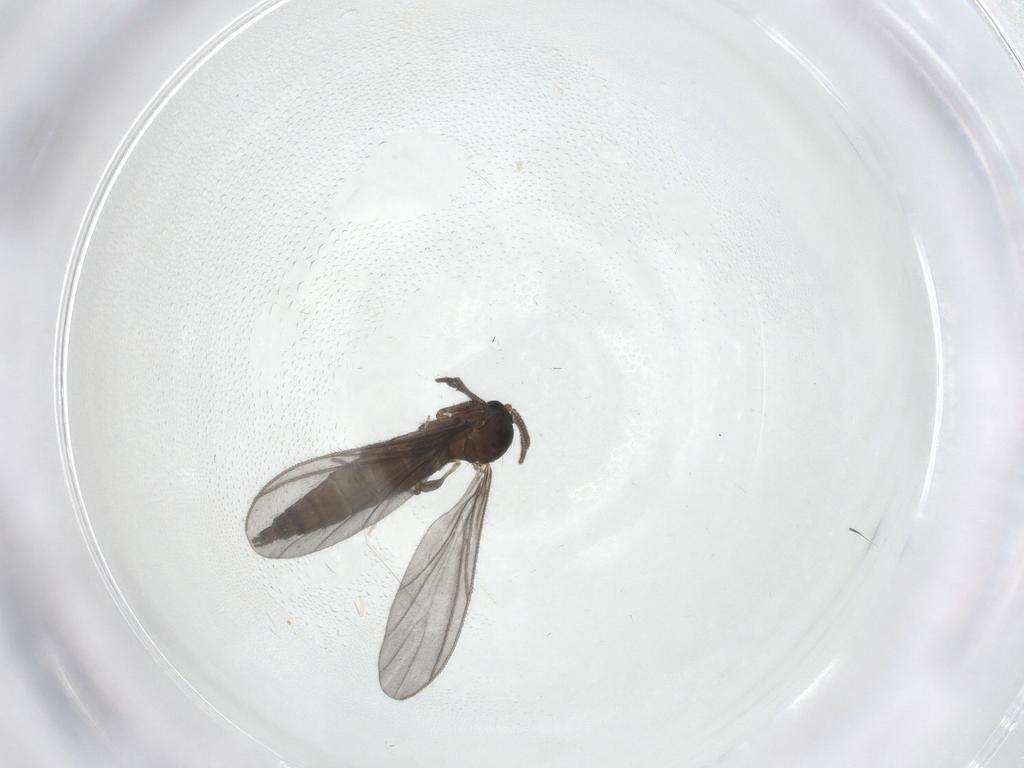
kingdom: Animalia
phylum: Arthropoda
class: Insecta
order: Diptera
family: Sciaridae
